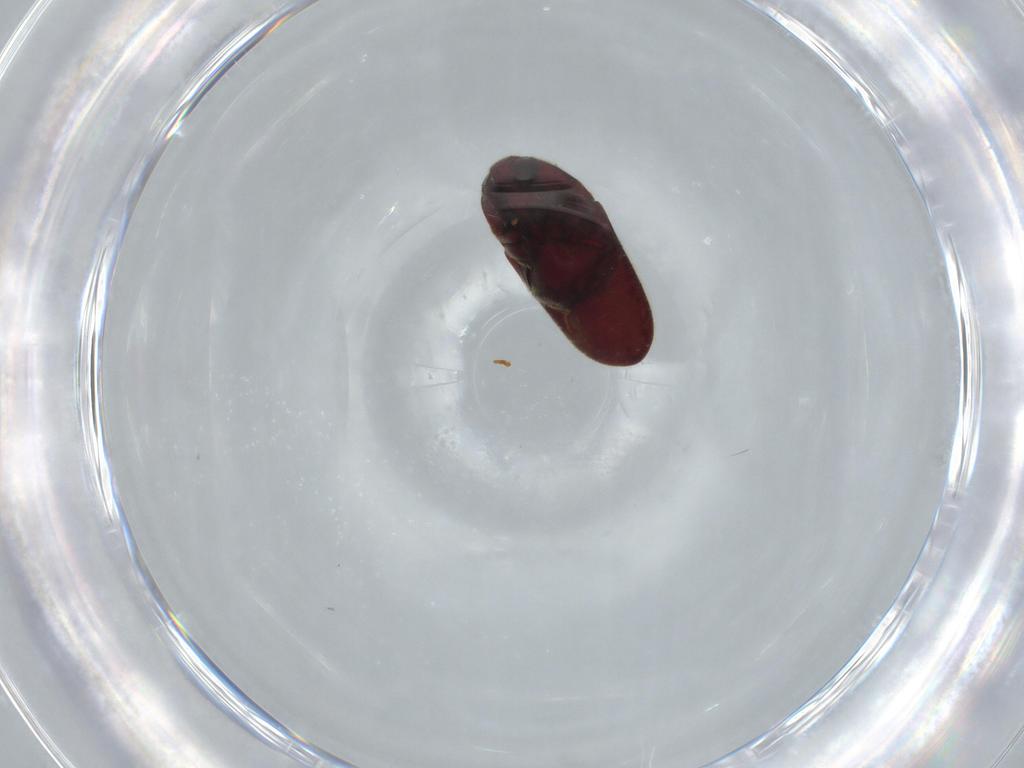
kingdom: Animalia
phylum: Arthropoda
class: Insecta
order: Coleoptera
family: Throscidae
